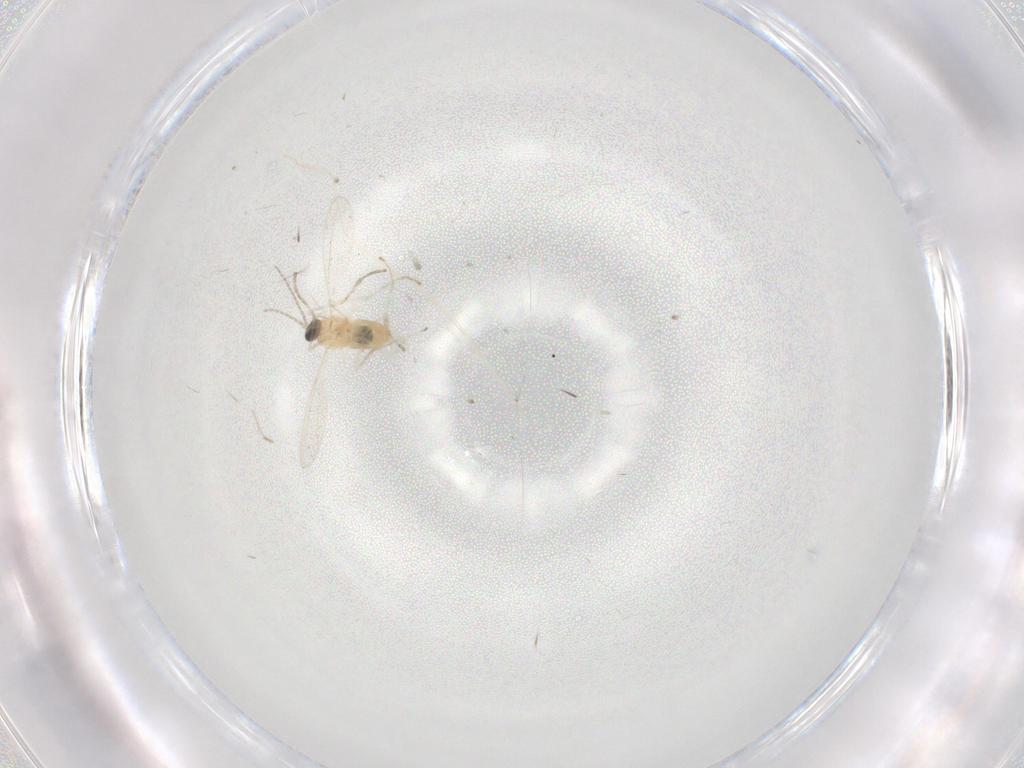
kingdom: Animalia
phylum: Arthropoda
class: Insecta
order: Diptera
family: Cecidomyiidae
